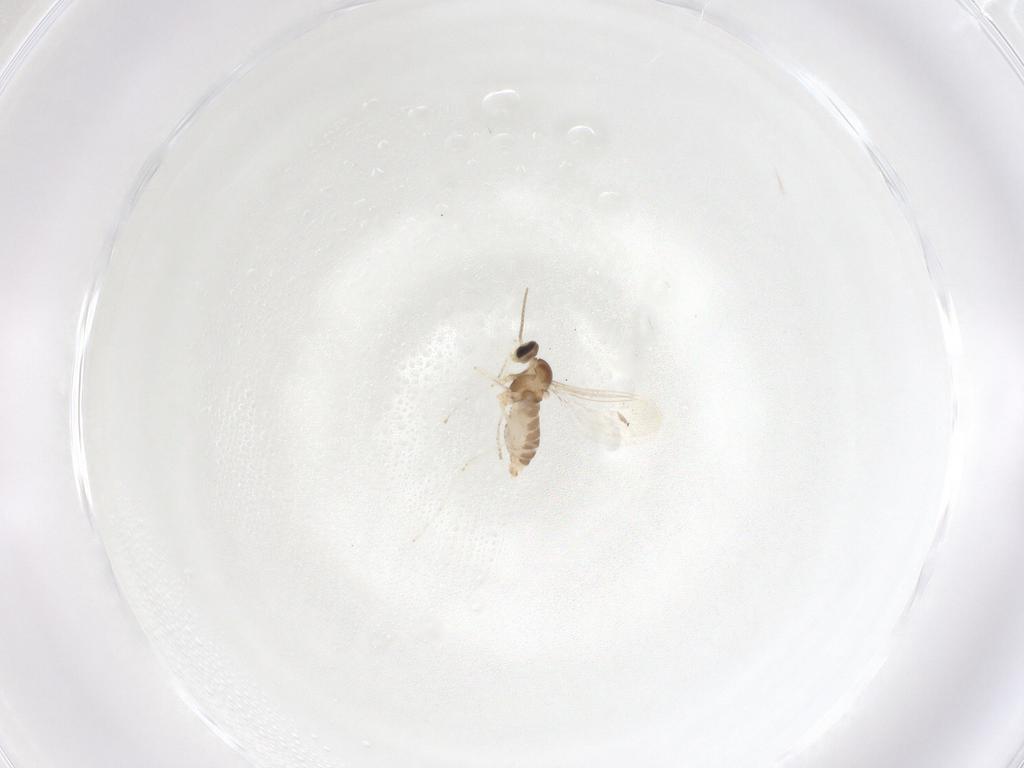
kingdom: Animalia
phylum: Arthropoda
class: Insecta
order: Diptera
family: Cecidomyiidae
